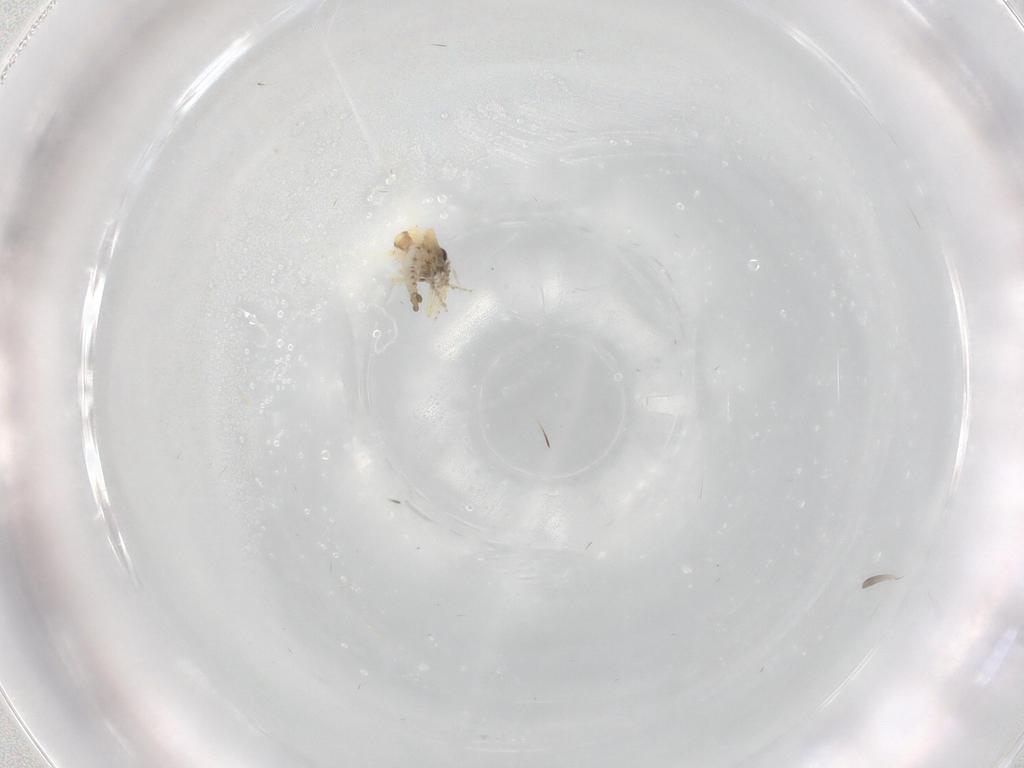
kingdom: Animalia
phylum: Arthropoda
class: Insecta
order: Diptera
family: Ceratopogonidae
